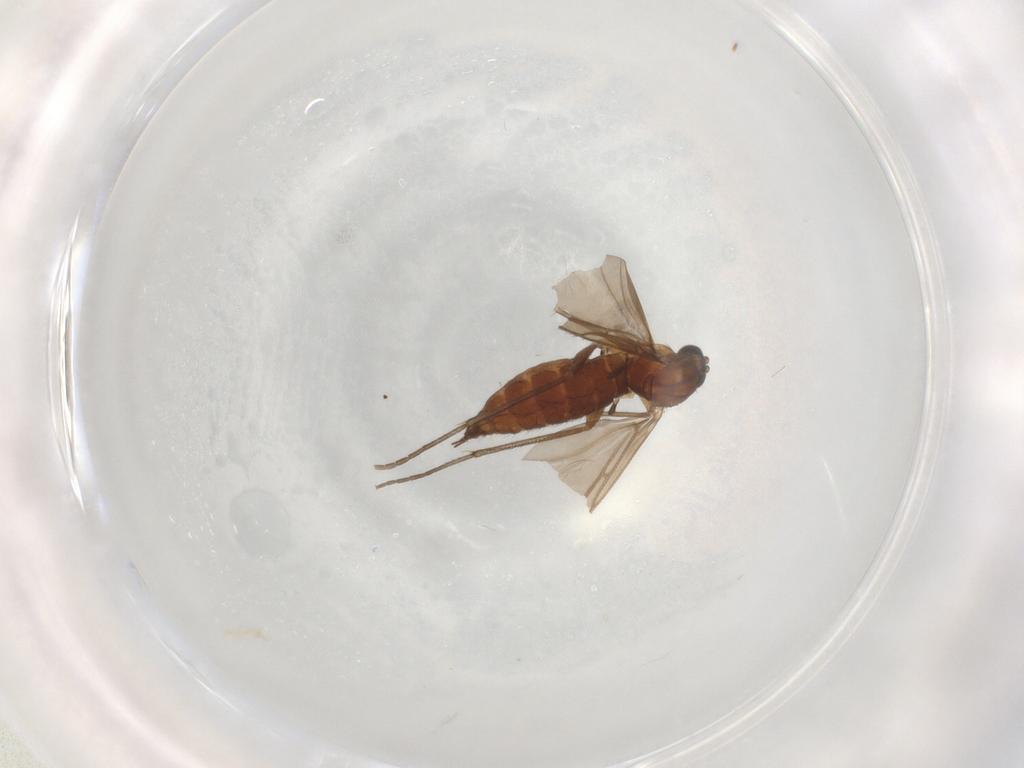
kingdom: Animalia
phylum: Arthropoda
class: Insecta
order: Diptera
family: Sciaridae
